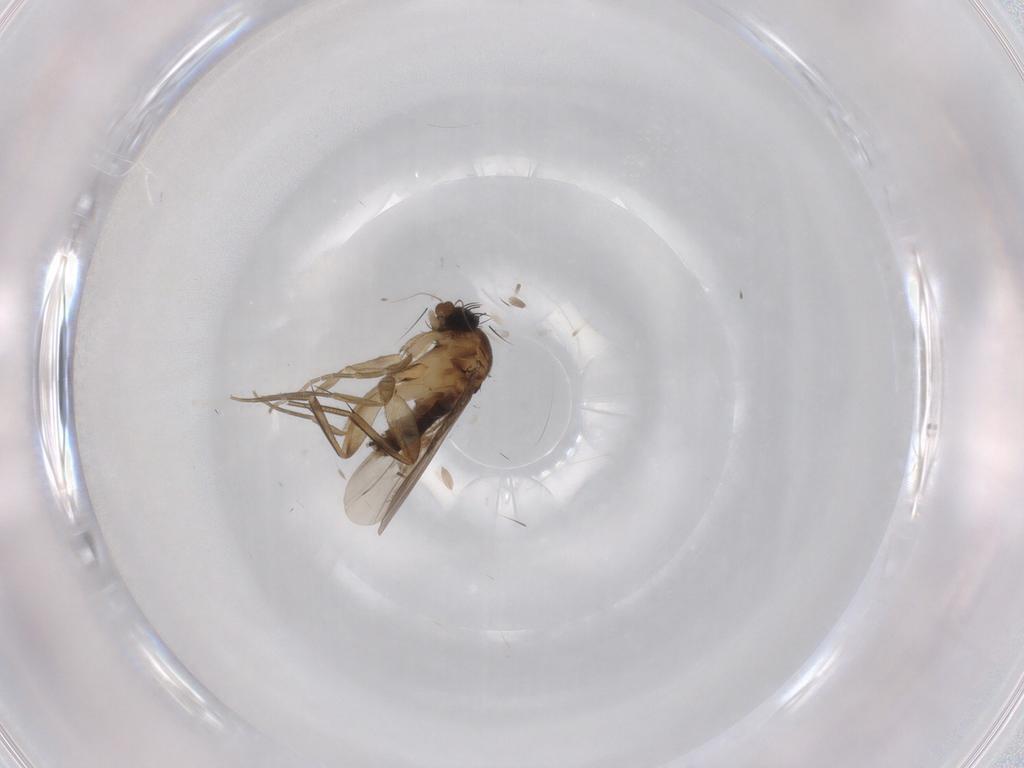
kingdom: Animalia
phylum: Arthropoda
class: Insecta
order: Diptera
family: Phoridae
